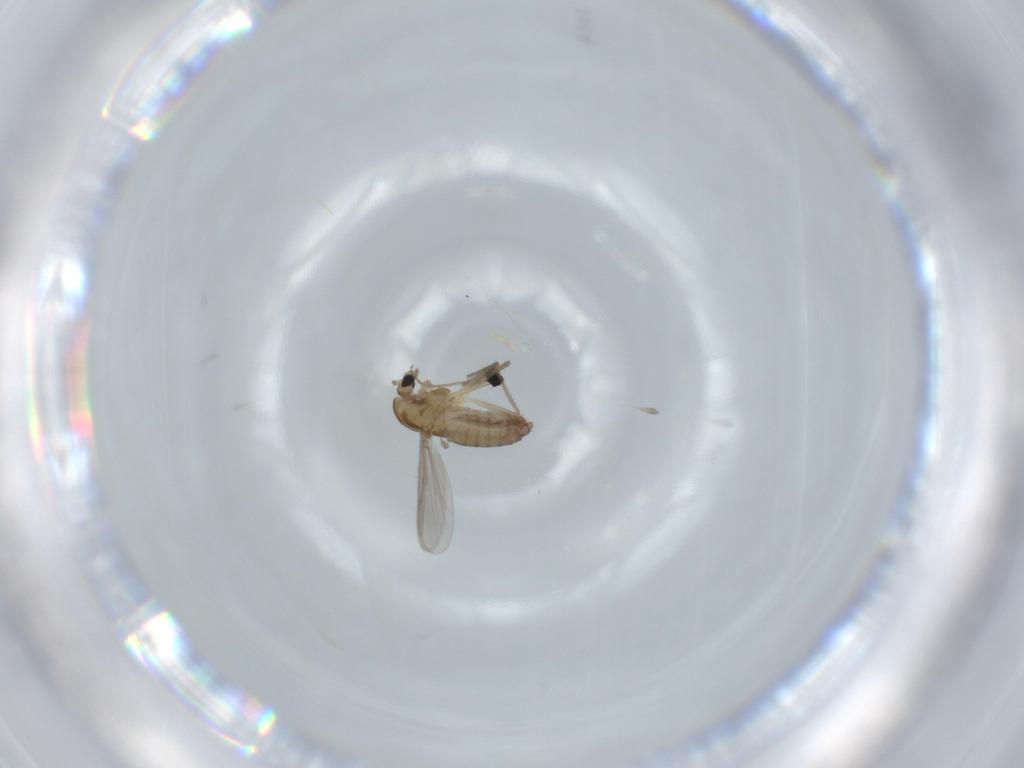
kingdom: Animalia
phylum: Arthropoda
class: Insecta
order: Diptera
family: Chironomidae
